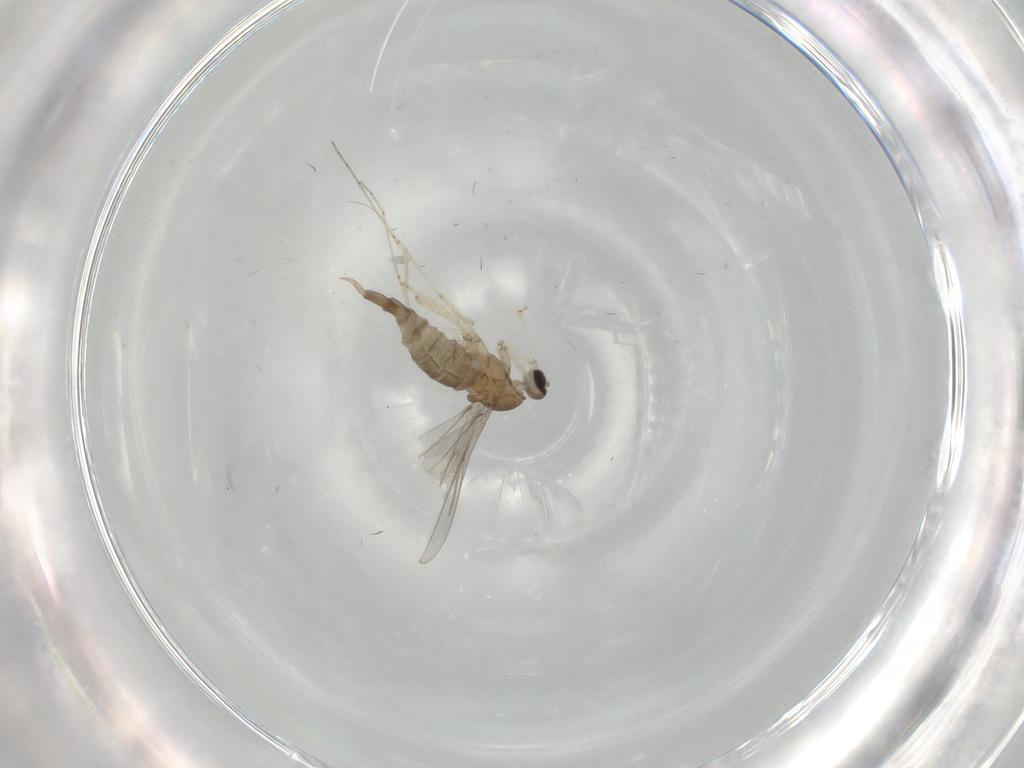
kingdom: Animalia
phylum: Arthropoda
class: Insecta
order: Diptera
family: Cecidomyiidae
